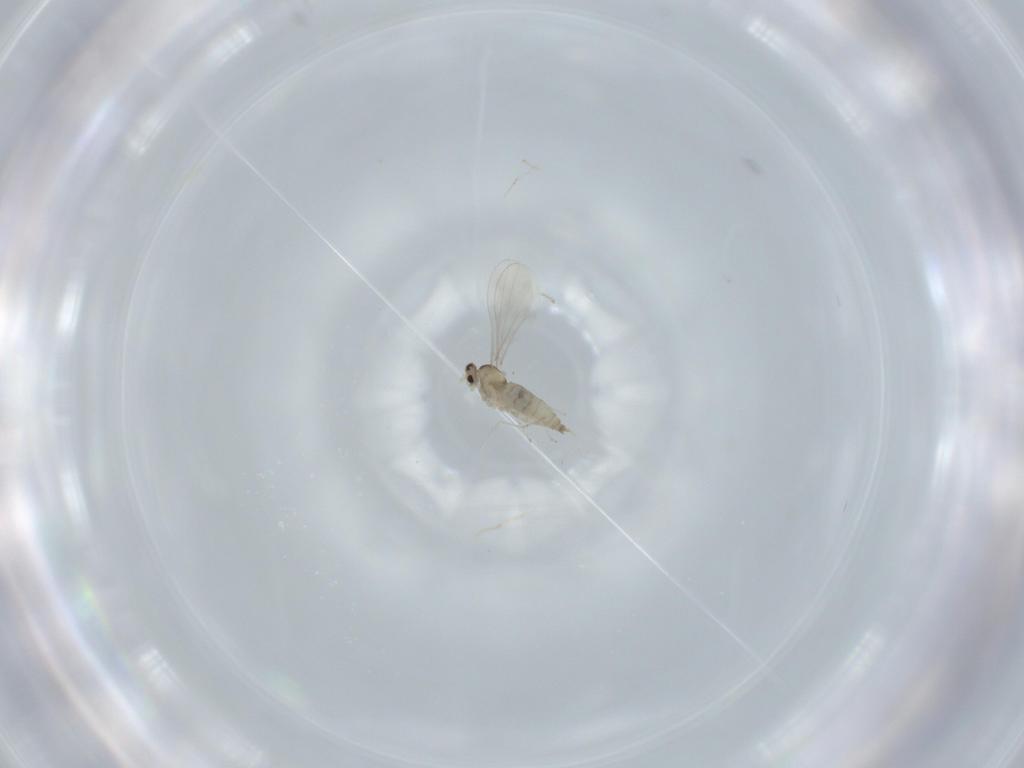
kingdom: Animalia
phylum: Arthropoda
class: Insecta
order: Diptera
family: Cecidomyiidae
